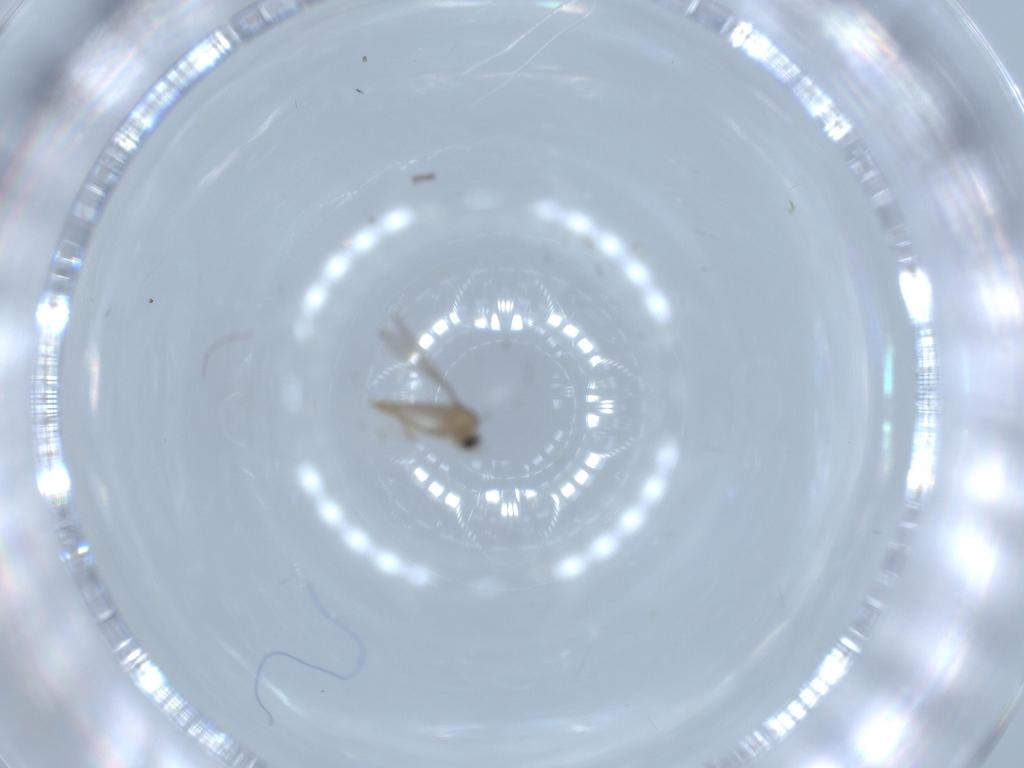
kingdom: Animalia
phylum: Arthropoda
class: Insecta
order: Diptera
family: Cecidomyiidae
